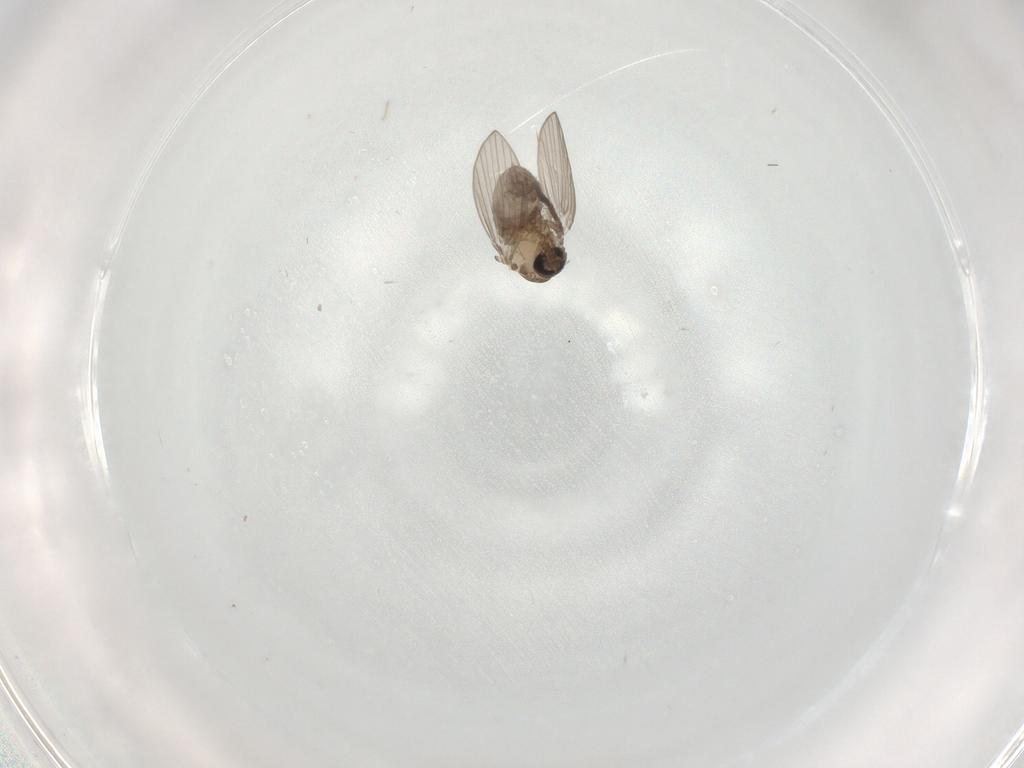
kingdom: Animalia
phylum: Arthropoda
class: Insecta
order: Diptera
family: Psychodidae
